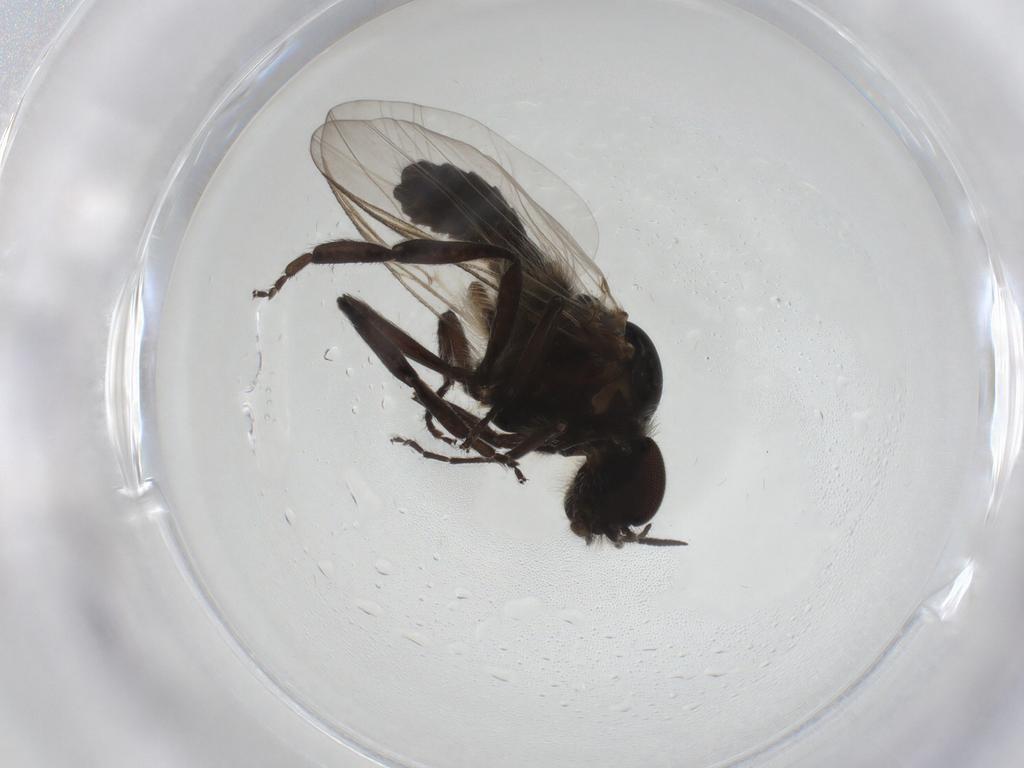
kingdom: Animalia
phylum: Arthropoda
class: Insecta
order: Diptera
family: Simuliidae
